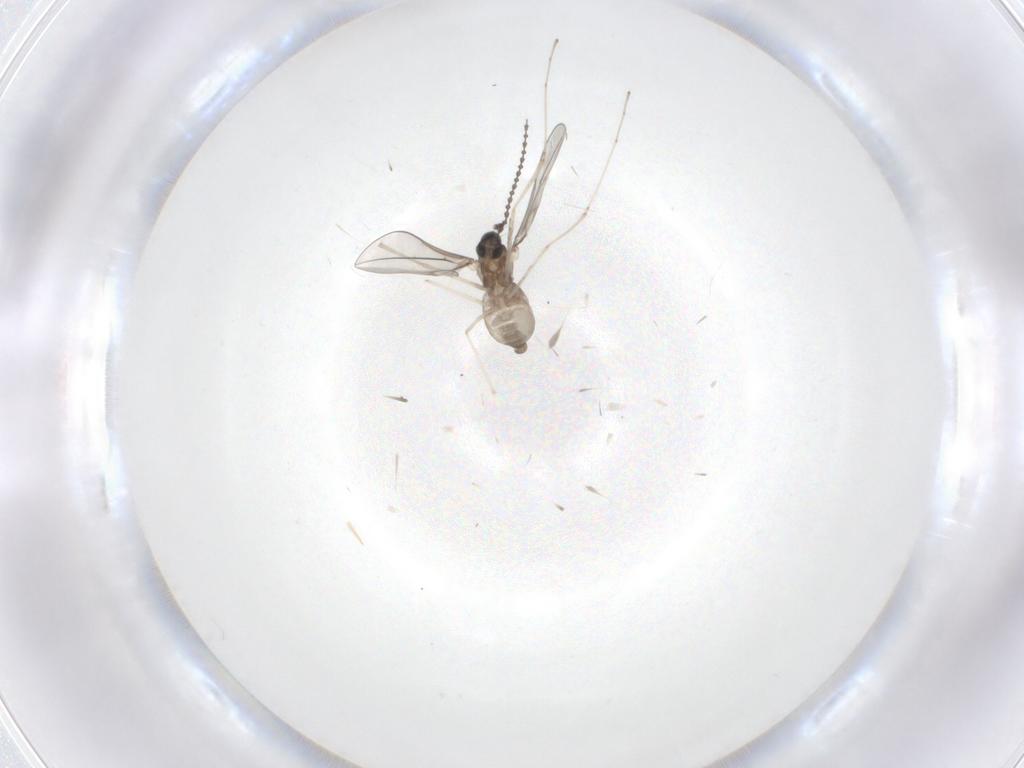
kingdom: Animalia
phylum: Arthropoda
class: Insecta
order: Diptera
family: Cecidomyiidae
